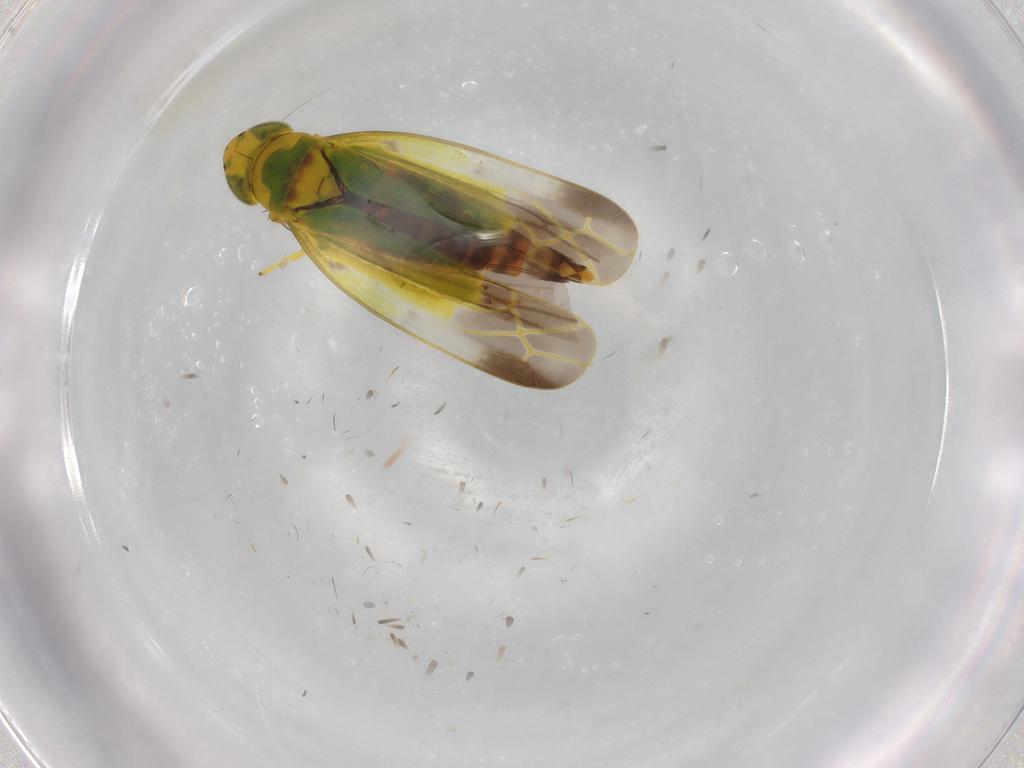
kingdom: Animalia
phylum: Arthropoda
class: Insecta
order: Hemiptera
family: Cicadellidae
